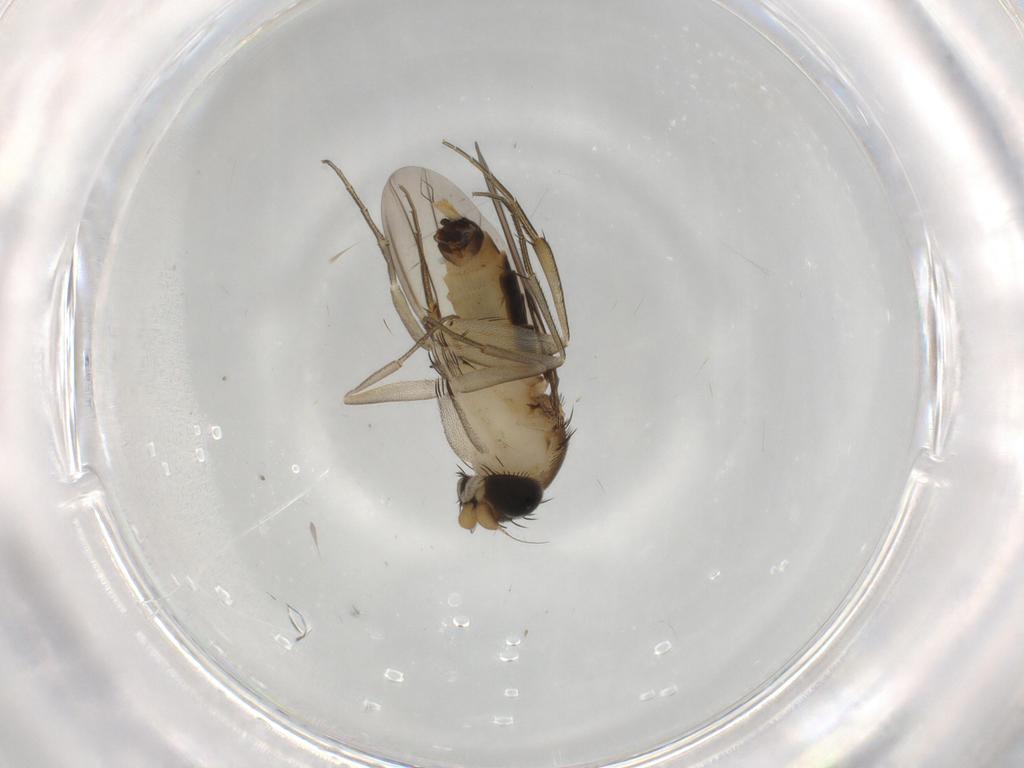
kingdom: Animalia
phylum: Arthropoda
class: Insecta
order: Diptera
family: Phoridae
